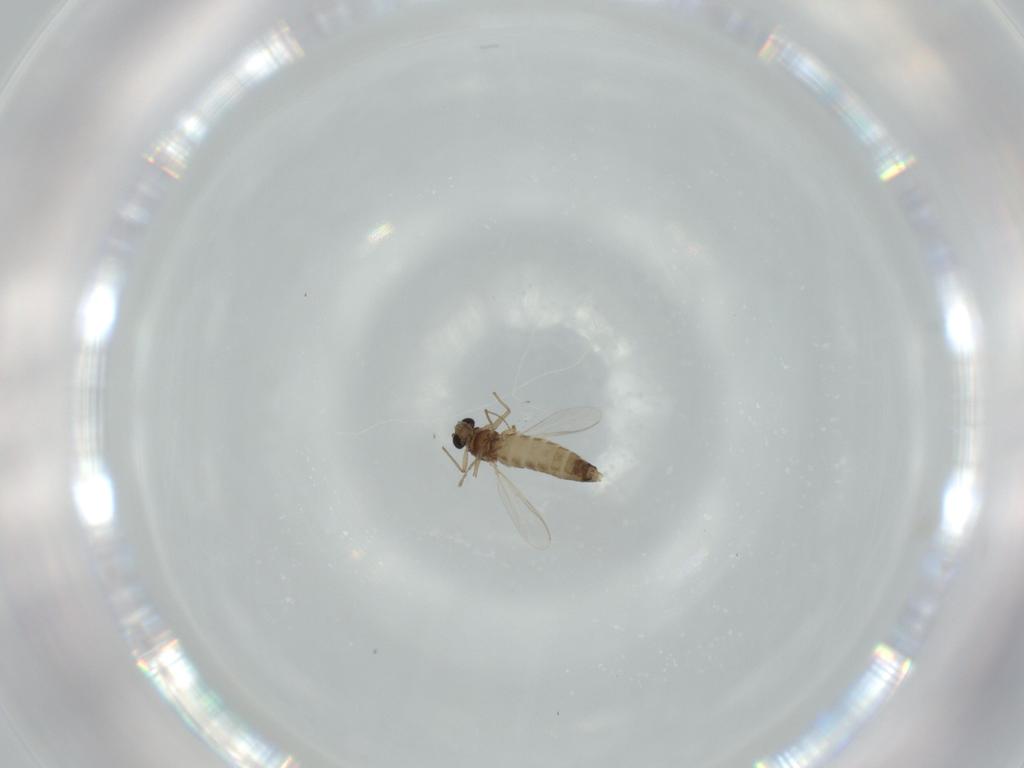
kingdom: Animalia
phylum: Arthropoda
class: Insecta
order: Diptera
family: Chironomidae
